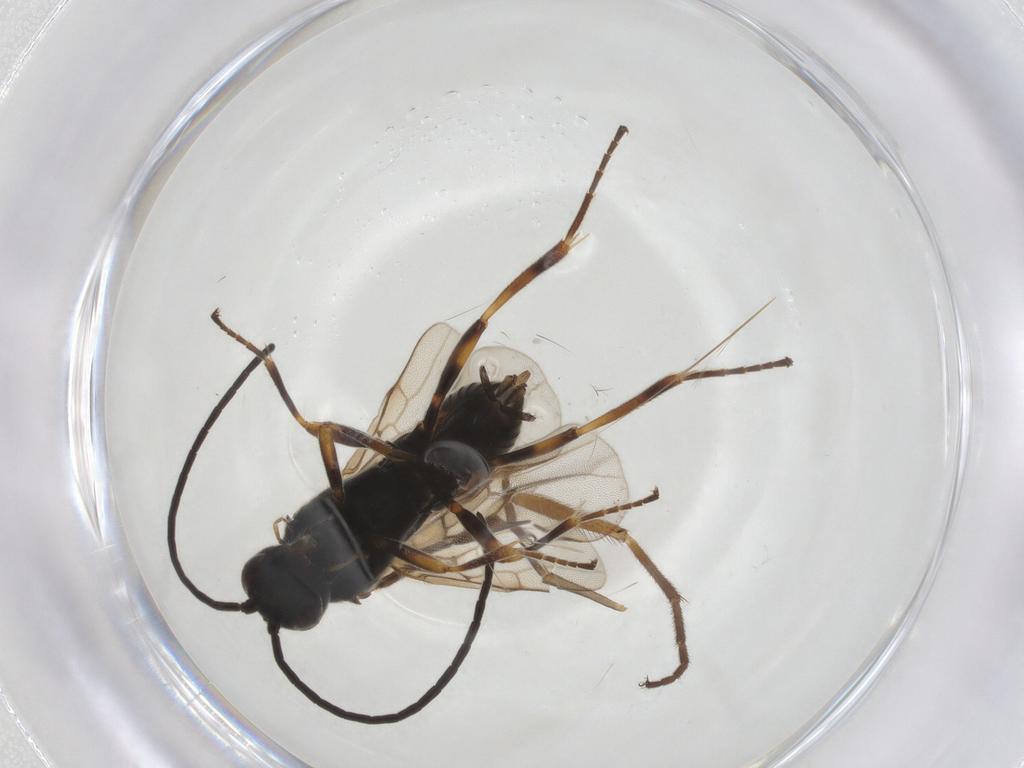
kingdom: Animalia
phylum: Arthropoda
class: Insecta
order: Hymenoptera
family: Braconidae
